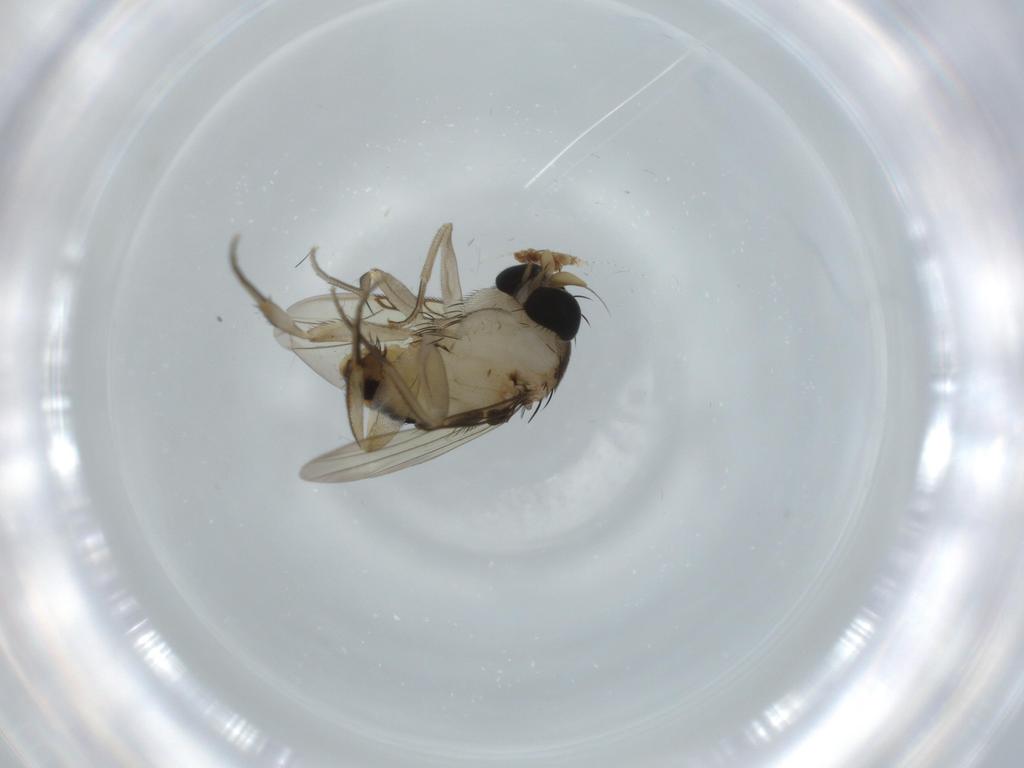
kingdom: Animalia
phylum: Arthropoda
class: Insecta
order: Diptera
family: Phoridae
